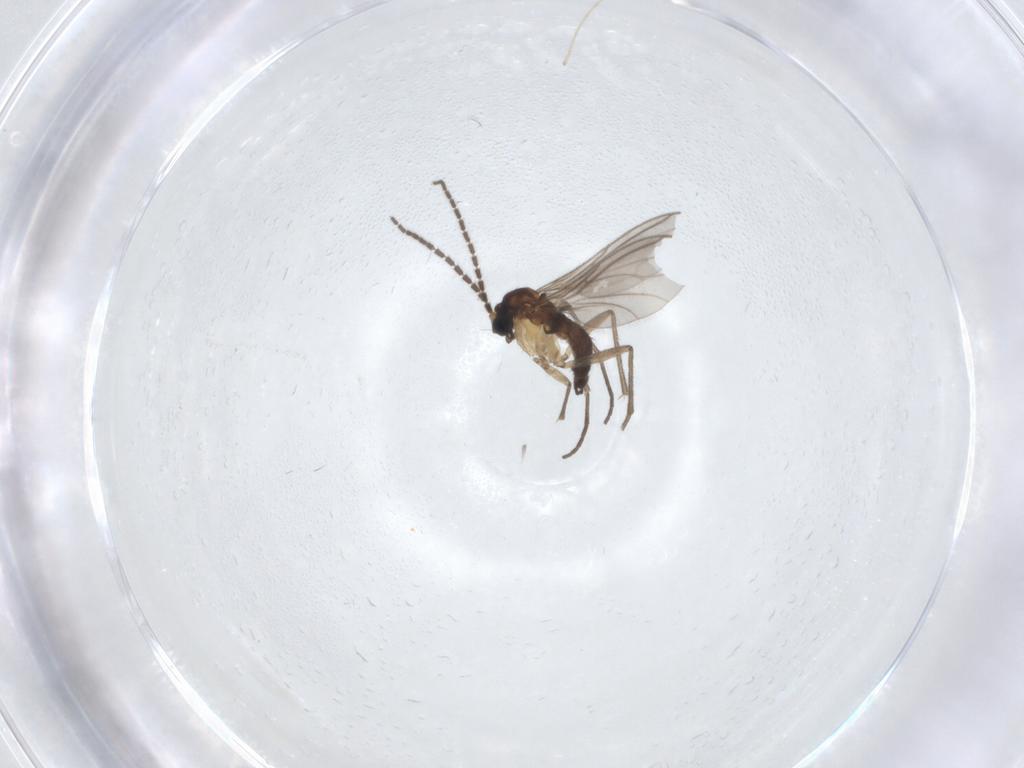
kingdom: Animalia
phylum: Arthropoda
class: Insecta
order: Diptera
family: Sciaridae
